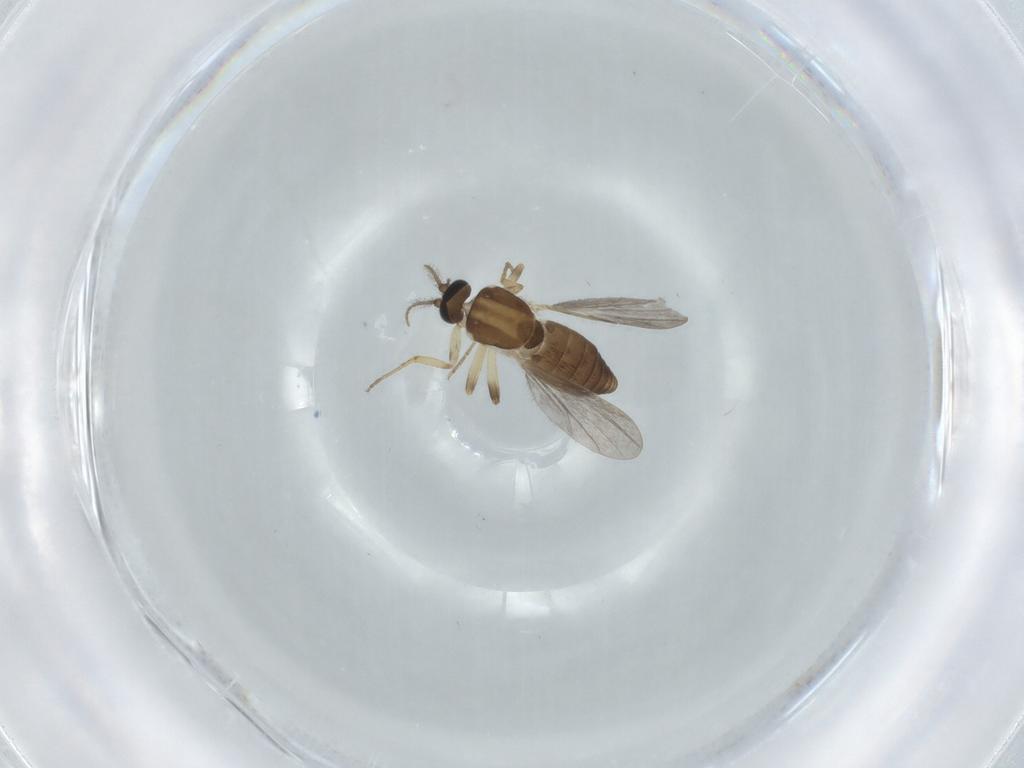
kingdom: Animalia
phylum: Arthropoda
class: Insecta
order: Diptera
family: Ceratopogonidae
